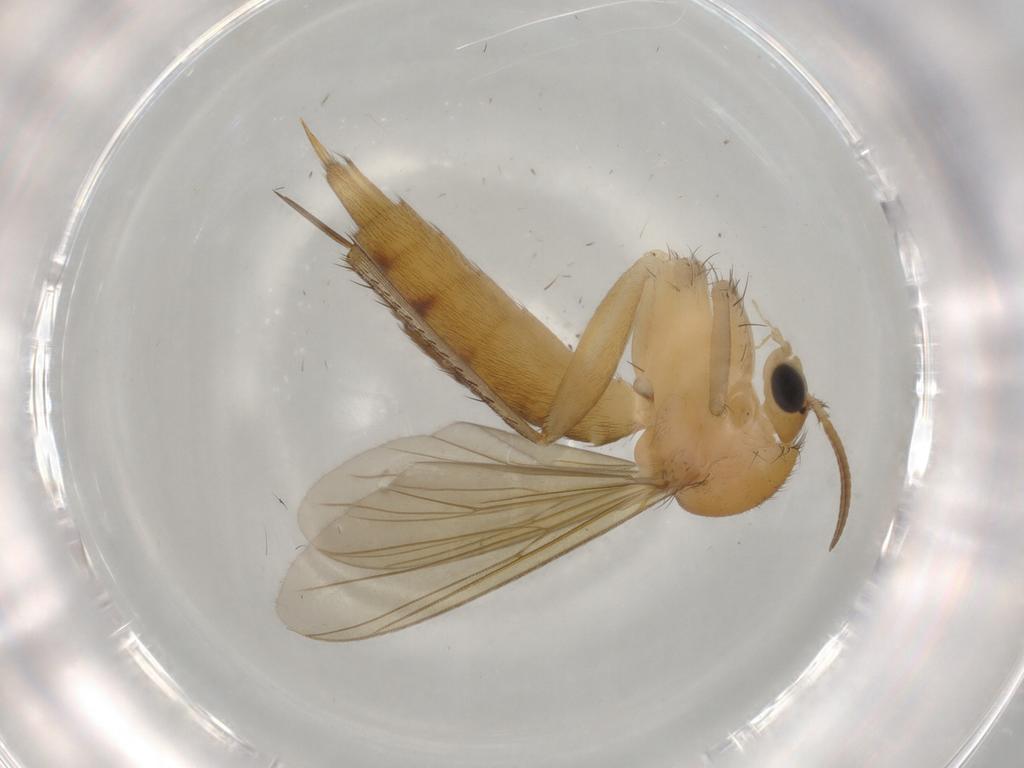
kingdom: Animalia
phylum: Arthropoda
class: Insecta
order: Diptera
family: Mycetophilidae
